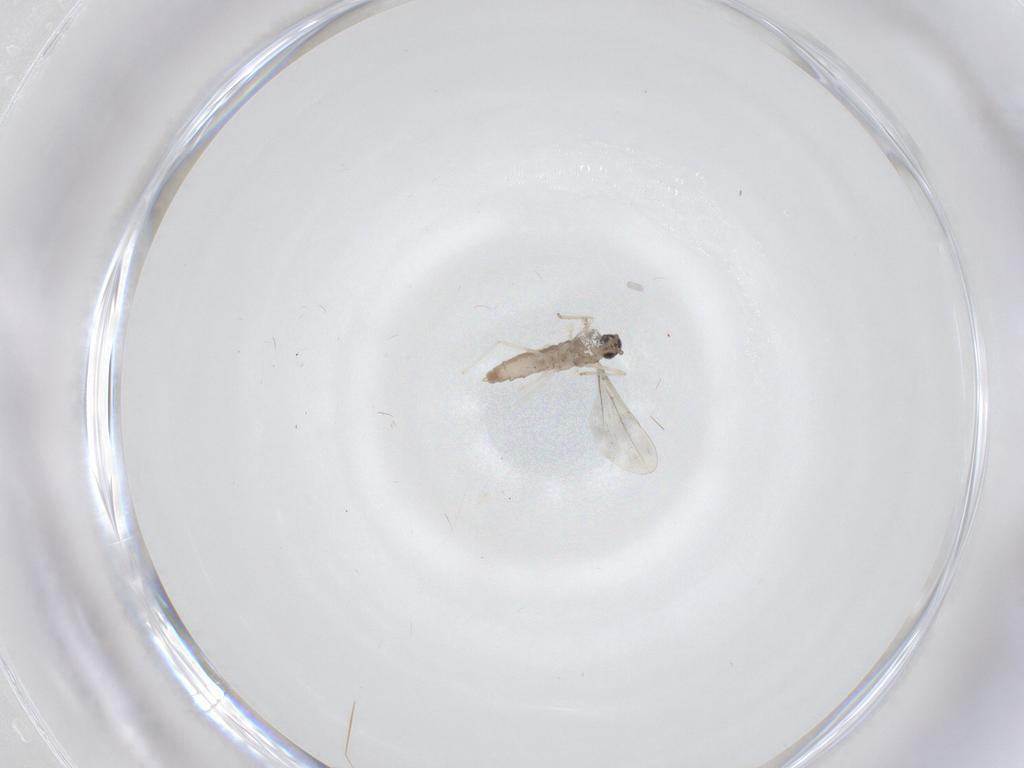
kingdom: Animalia
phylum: Arthropoda
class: Insecta
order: Diptera
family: Cecidomyiidae
